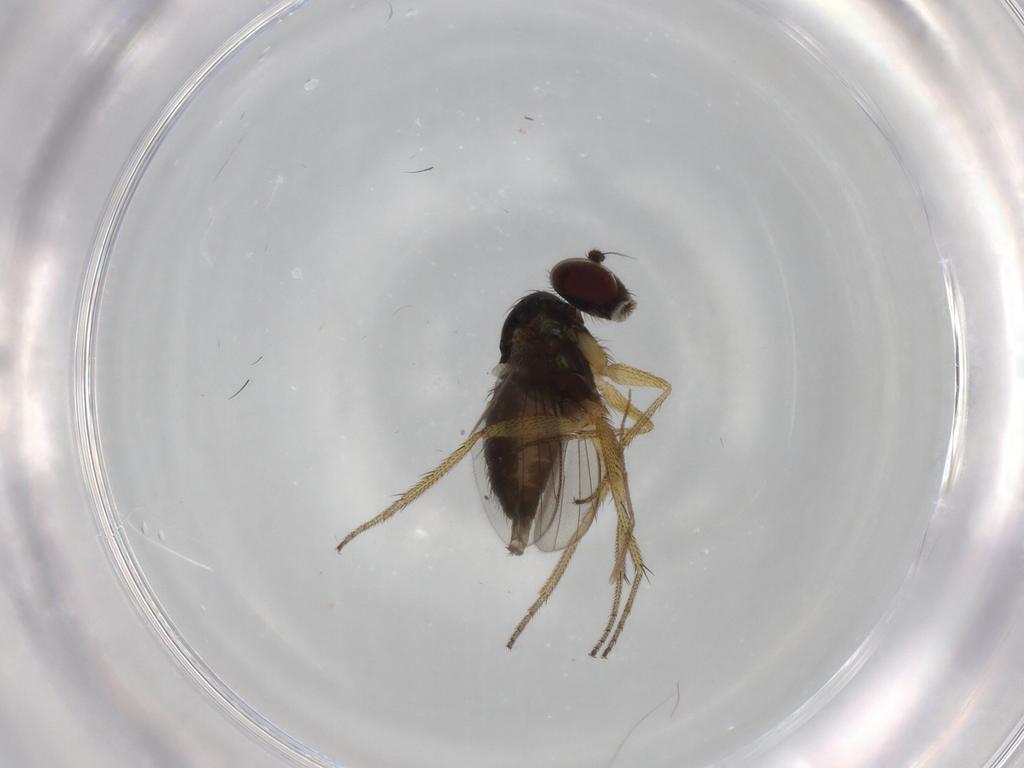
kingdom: Animalia
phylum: Arthropoda
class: Insecta
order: Diptera
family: Dolichopodidae
